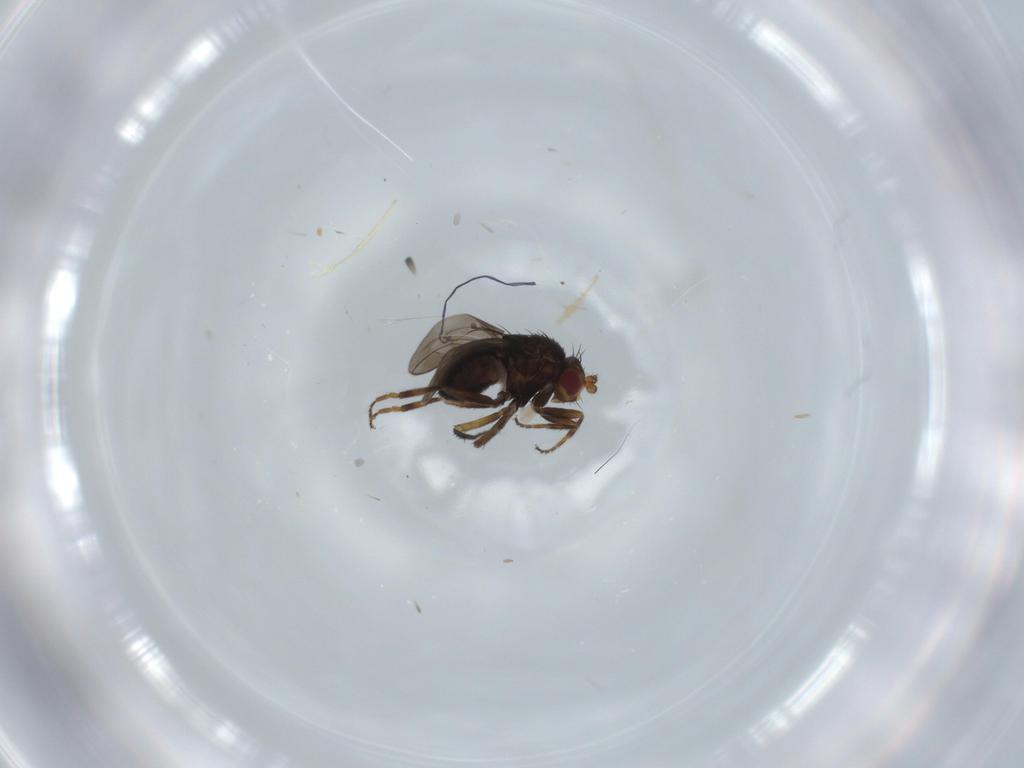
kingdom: Animalia
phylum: Arthropoda
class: Insecta
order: Diptera
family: Sphaeroceridae
